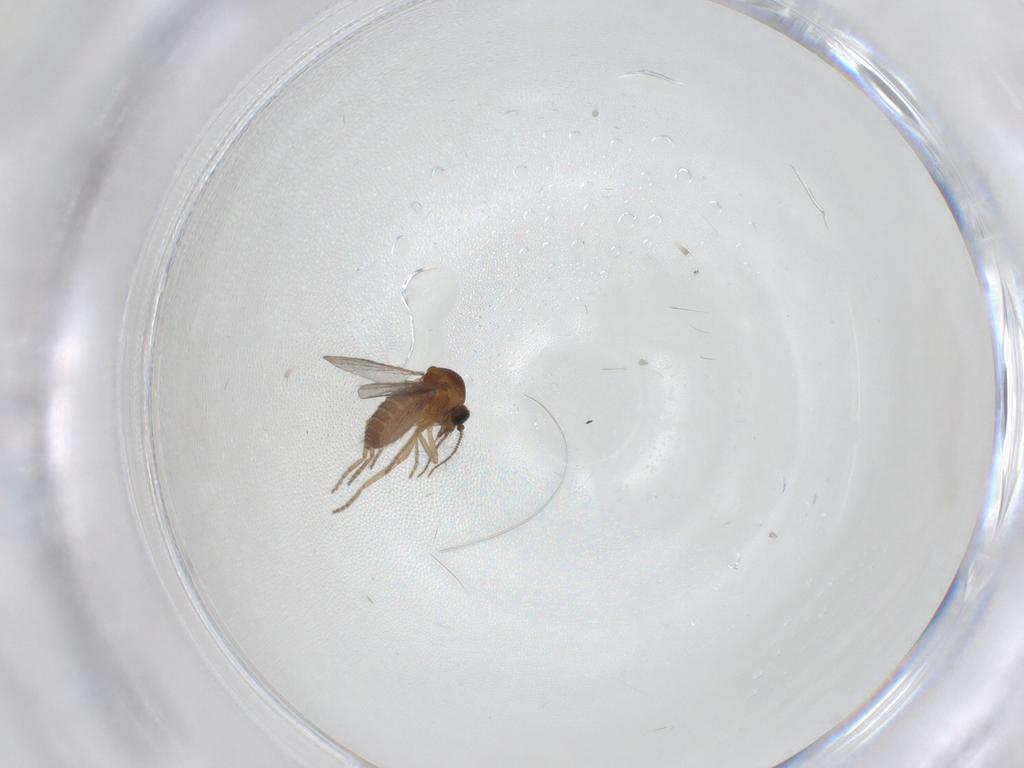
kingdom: Animalia
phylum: Arthropoda
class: Insecta
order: Diptera
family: Ceratopogonidae
